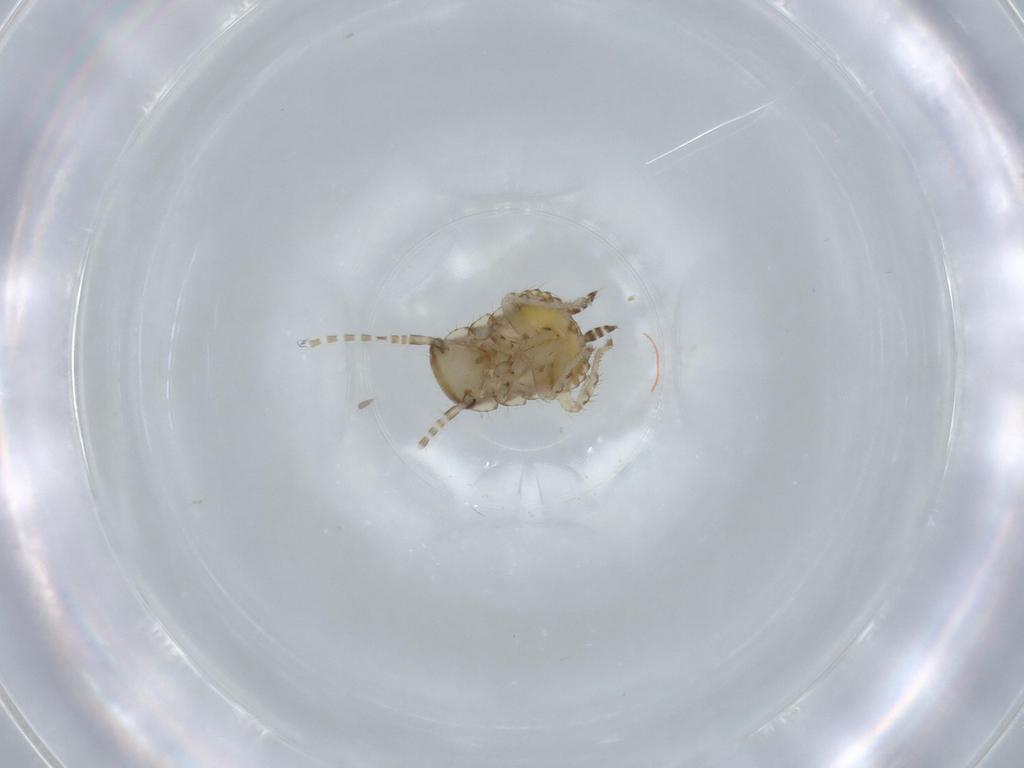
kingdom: Animalia
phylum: Arthropoda
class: Insecta
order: Blattodea
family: Ectobiidae
